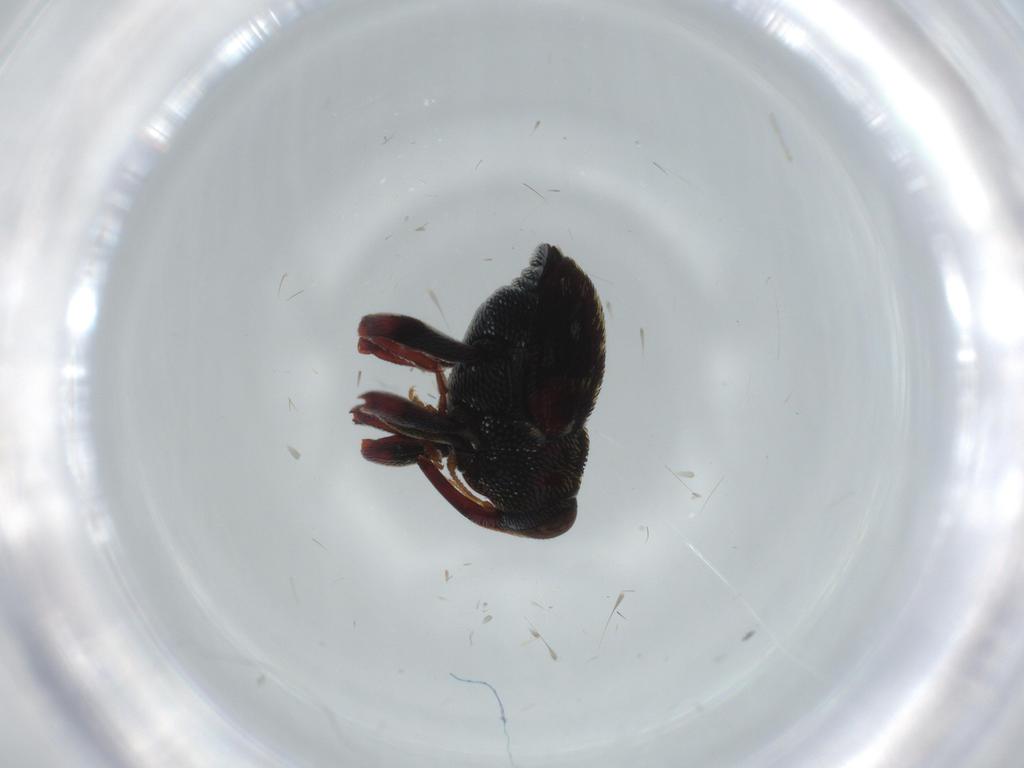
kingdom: Animalia
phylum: Arthropoda
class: Insecta
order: Coleoptera
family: Curculionidae
